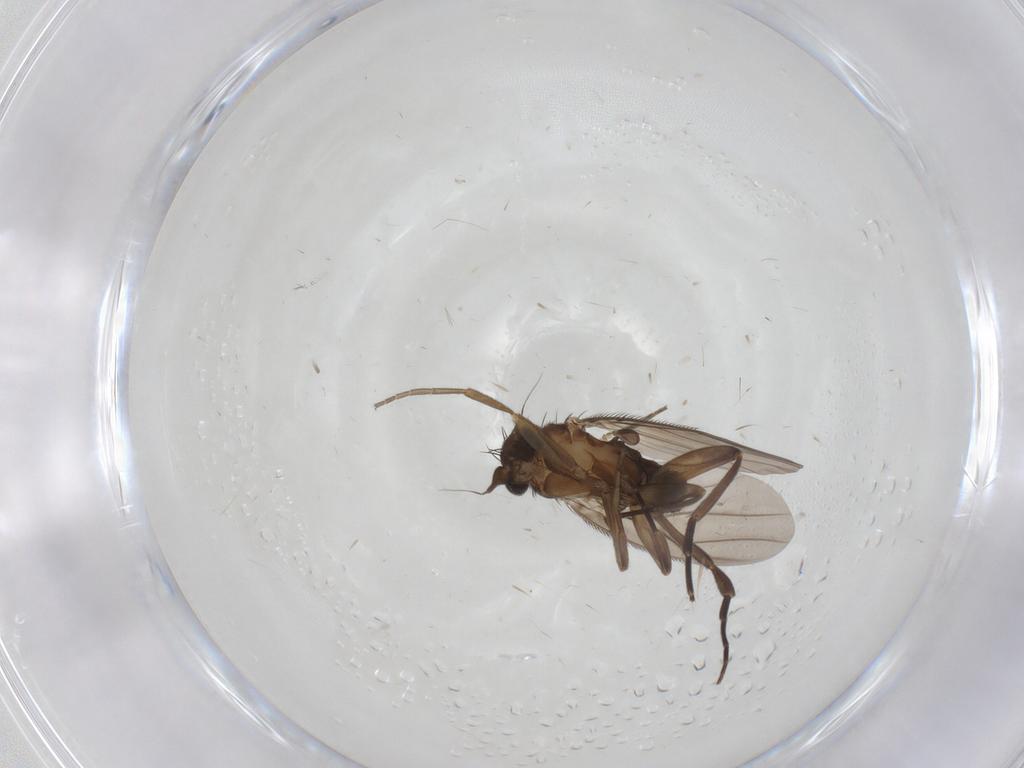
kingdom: Animalia
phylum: Arthropoda
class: Insecta
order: Diptera
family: Phoridae
